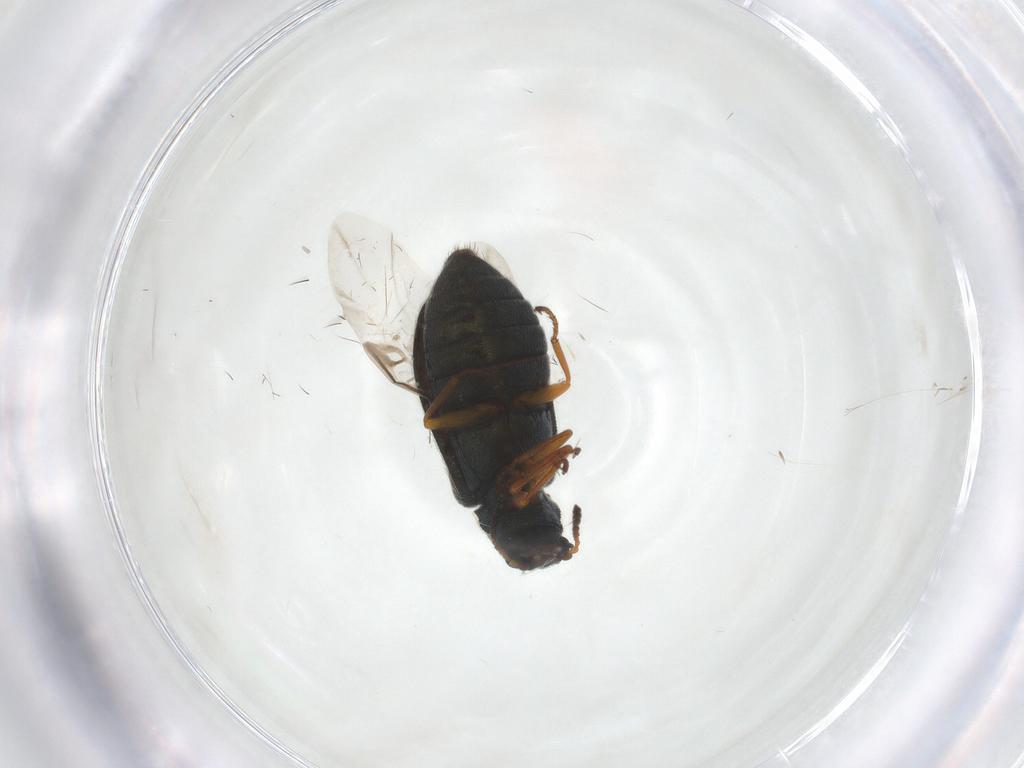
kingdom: Animalia
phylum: Arthropoda
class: Insecta
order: Coleoptera
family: Melyridae
